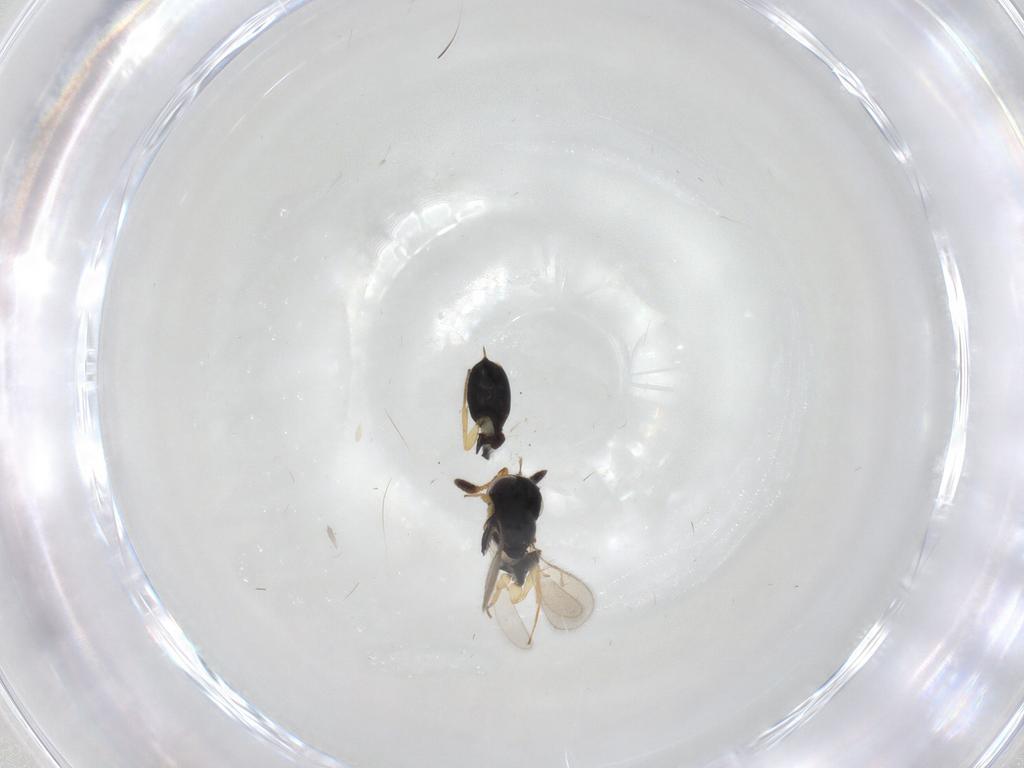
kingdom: Animalia
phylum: Arthropoda
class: Insecta
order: Hymenoptera
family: Scelionidae
